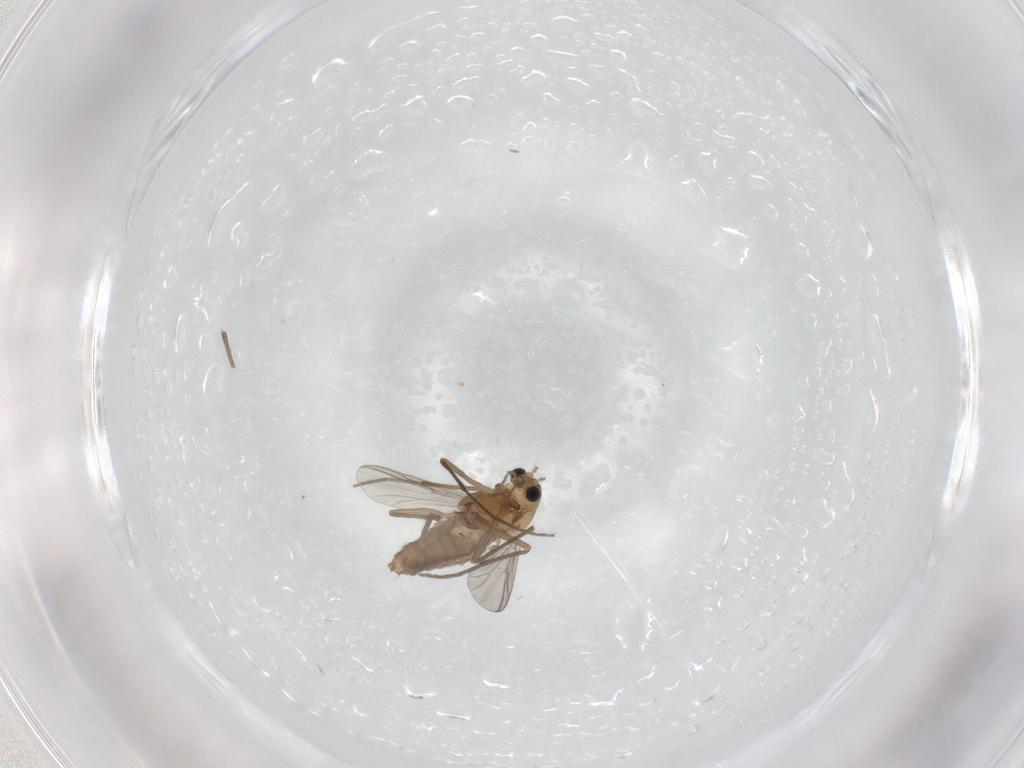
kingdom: Animalia
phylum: Arthropoda
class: Insecta
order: Diptera
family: Chironomidae
